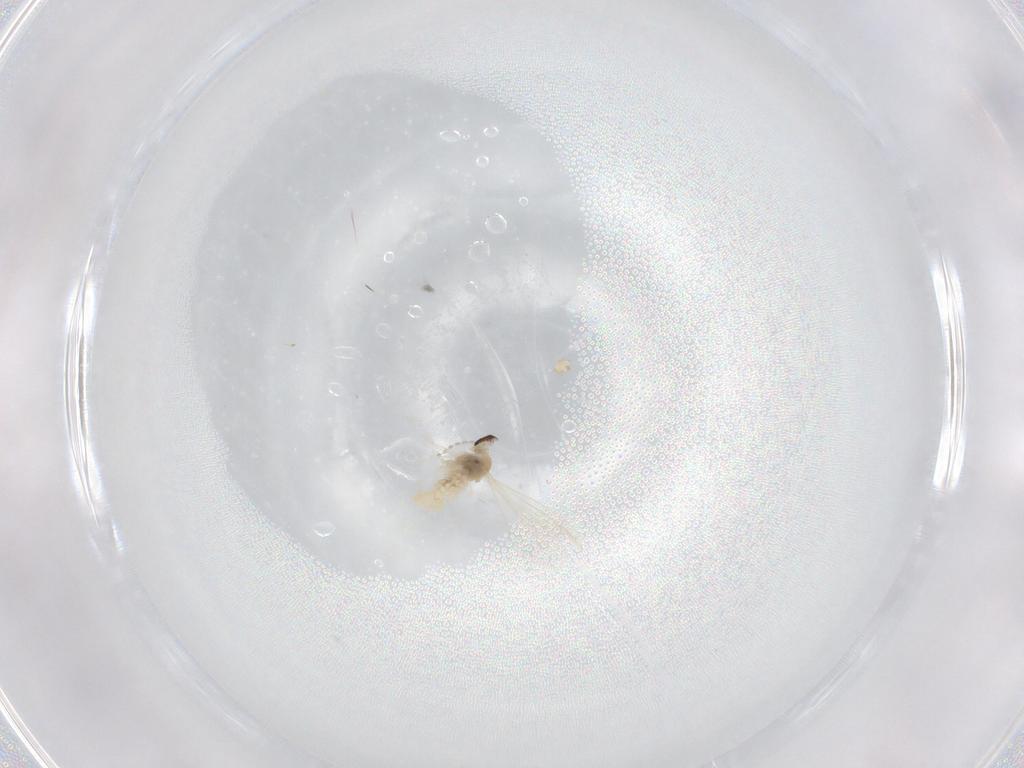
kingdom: Animalia
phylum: Arthropoda
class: Insecta
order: Diptera
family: Cecidomyiidae
